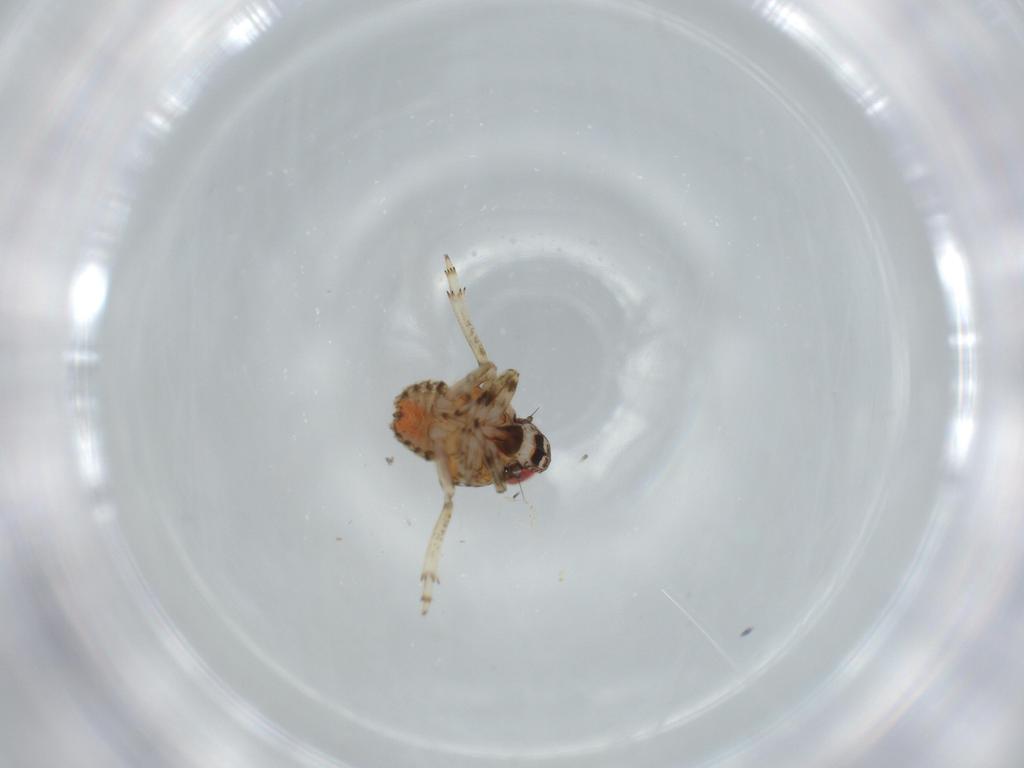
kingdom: Animalia
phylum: Arthropoda
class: Insecta
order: Hemiptera
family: Issidae
